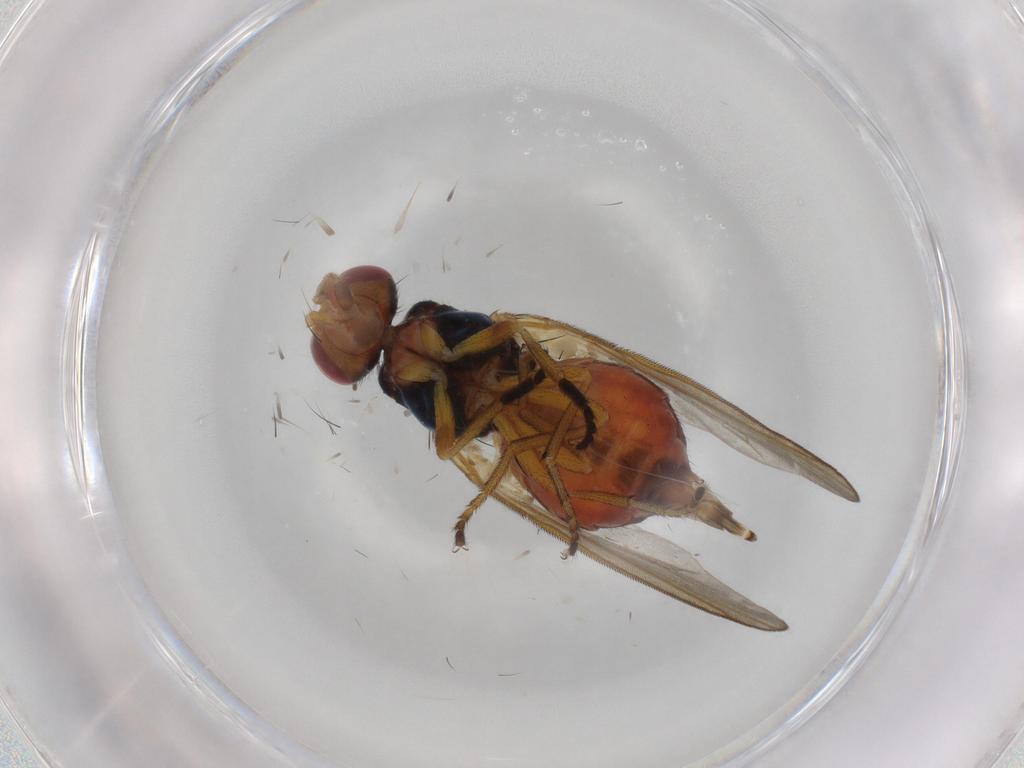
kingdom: Animalia
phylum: Arthropoda
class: Insecta
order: Diptera
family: Piophilidae
